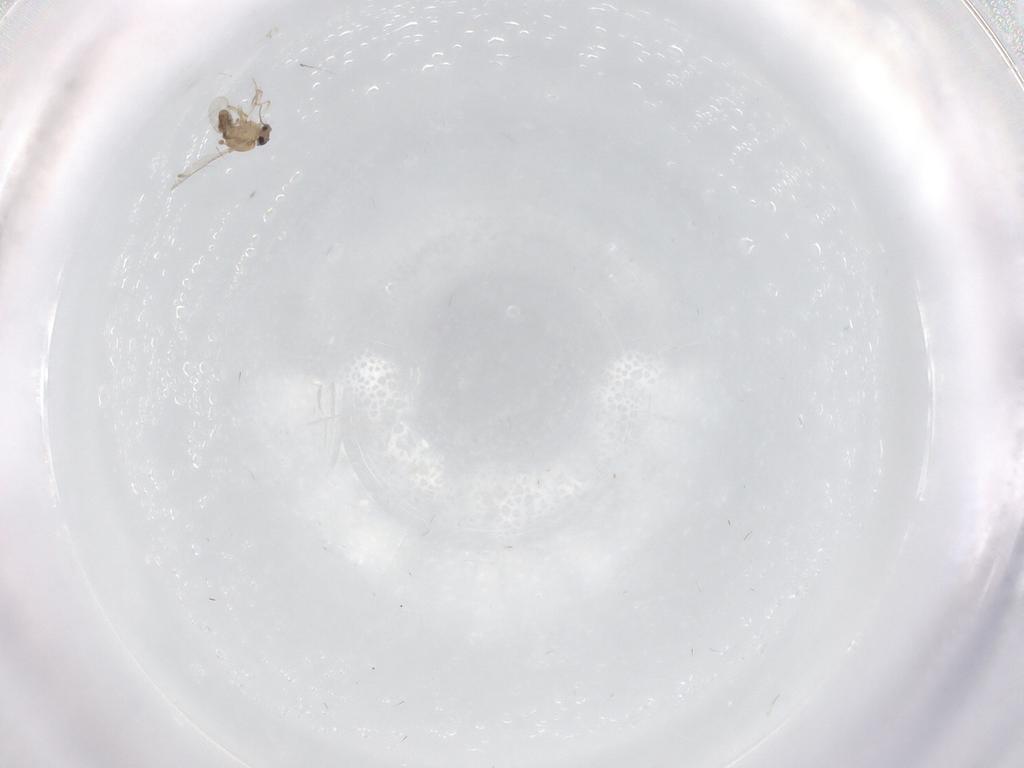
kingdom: Animalia
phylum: Arthropoda
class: Insecta
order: Diptera
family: Ceratopogonidae
